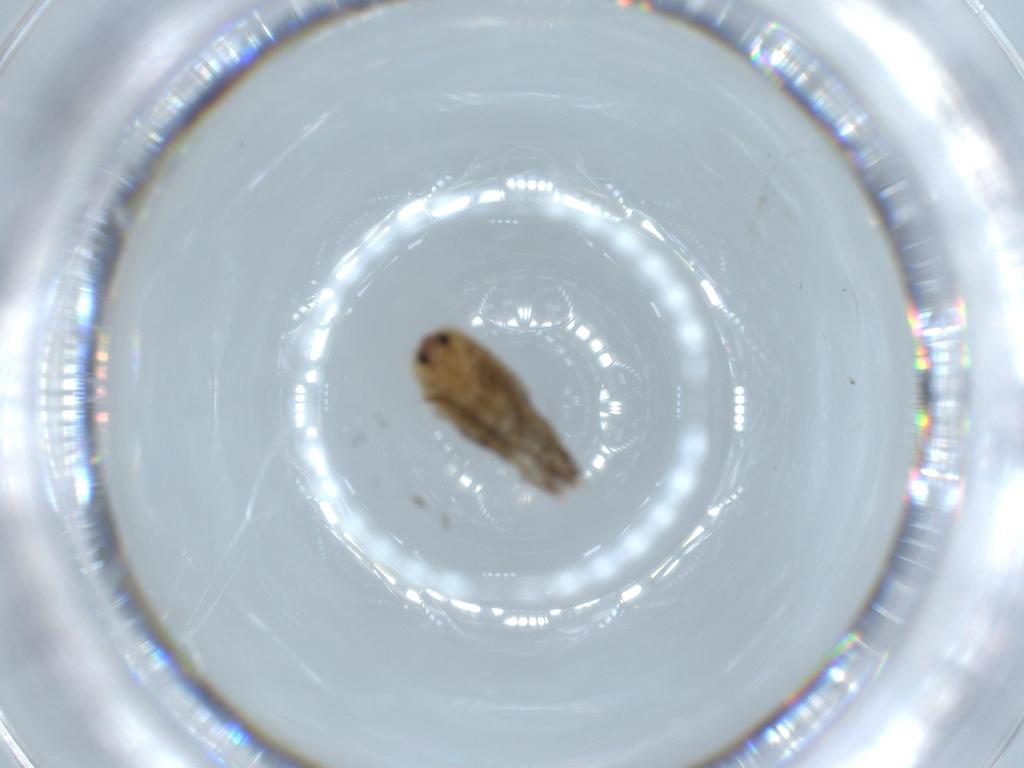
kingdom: Animalia
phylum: Arthropoda
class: Insecta
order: Lepidoptera
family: Nepticulidae
